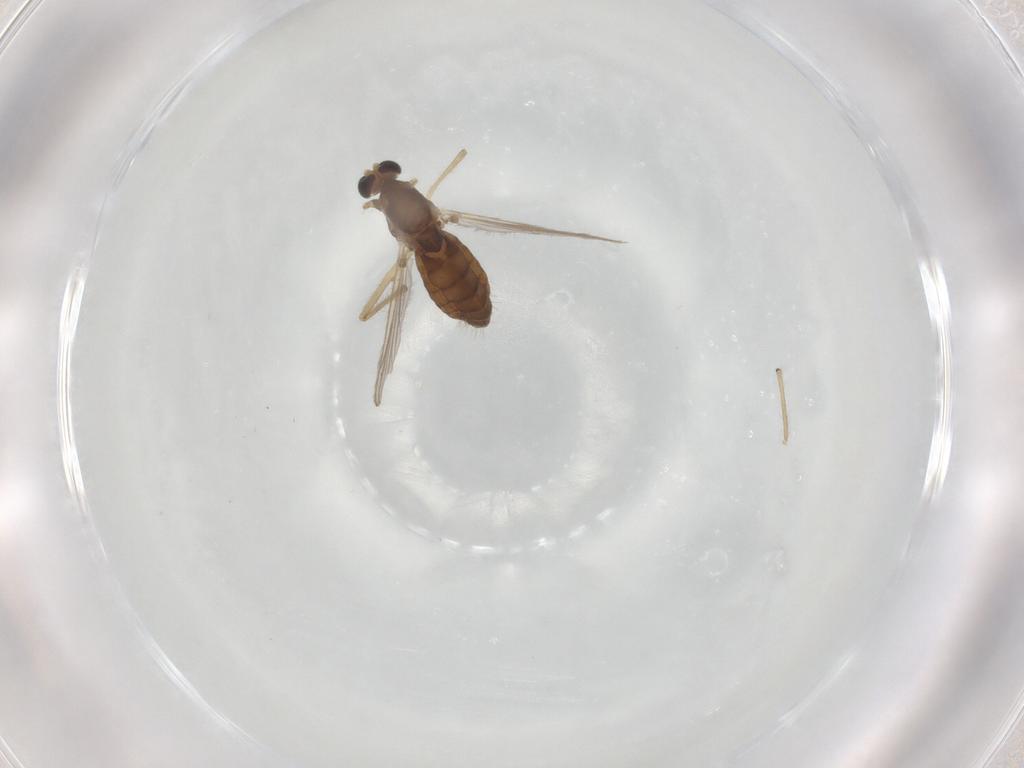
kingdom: Animalia
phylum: Arthropoda
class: Insecta
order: Diptera
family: Chironomidae
